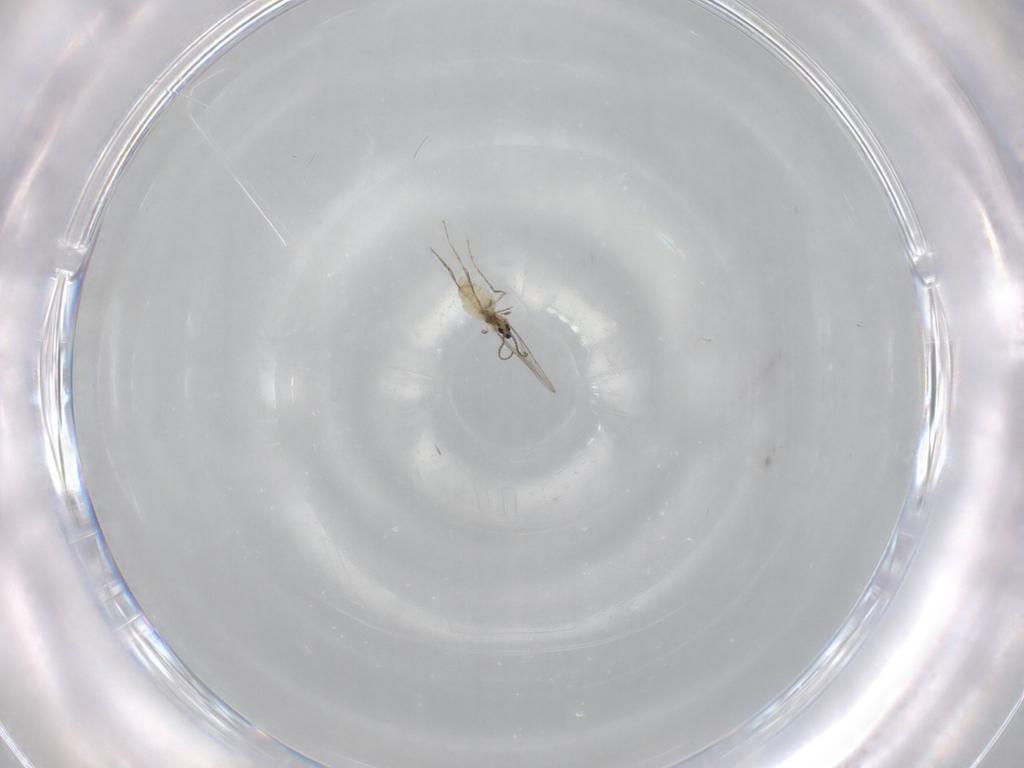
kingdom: Animalia
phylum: Arthropoda
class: Insecta
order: Diptera
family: Cecidomyiidae
